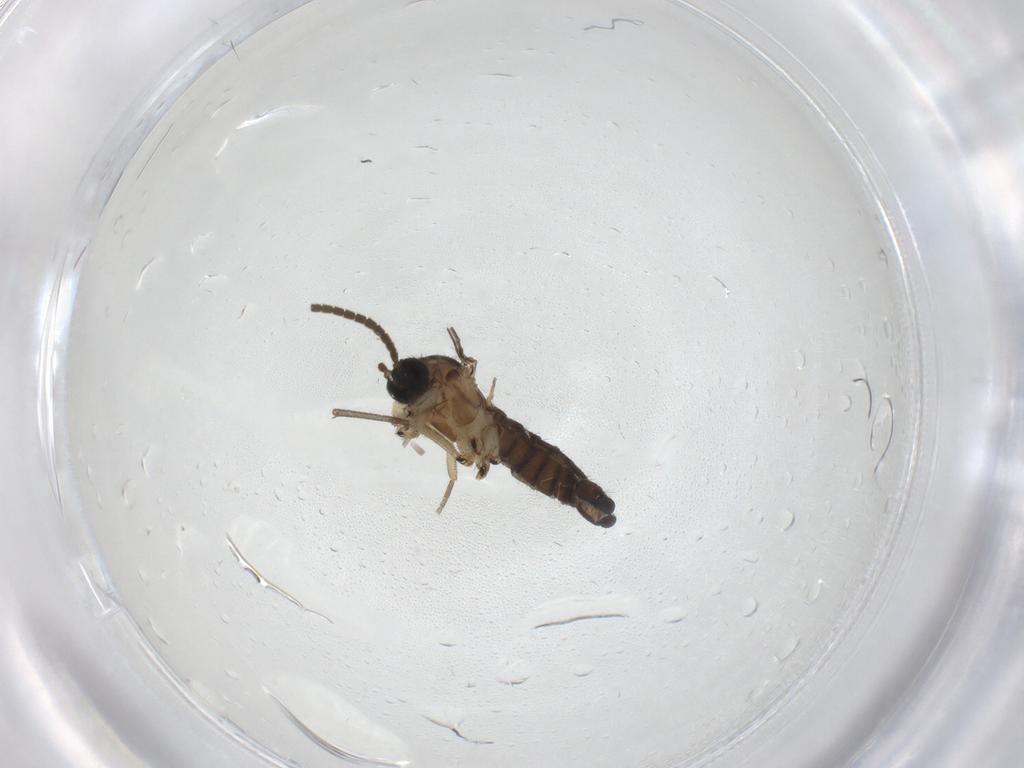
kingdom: Animalia
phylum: Arthropoda
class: Insecta
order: Diptera
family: Phoridae
